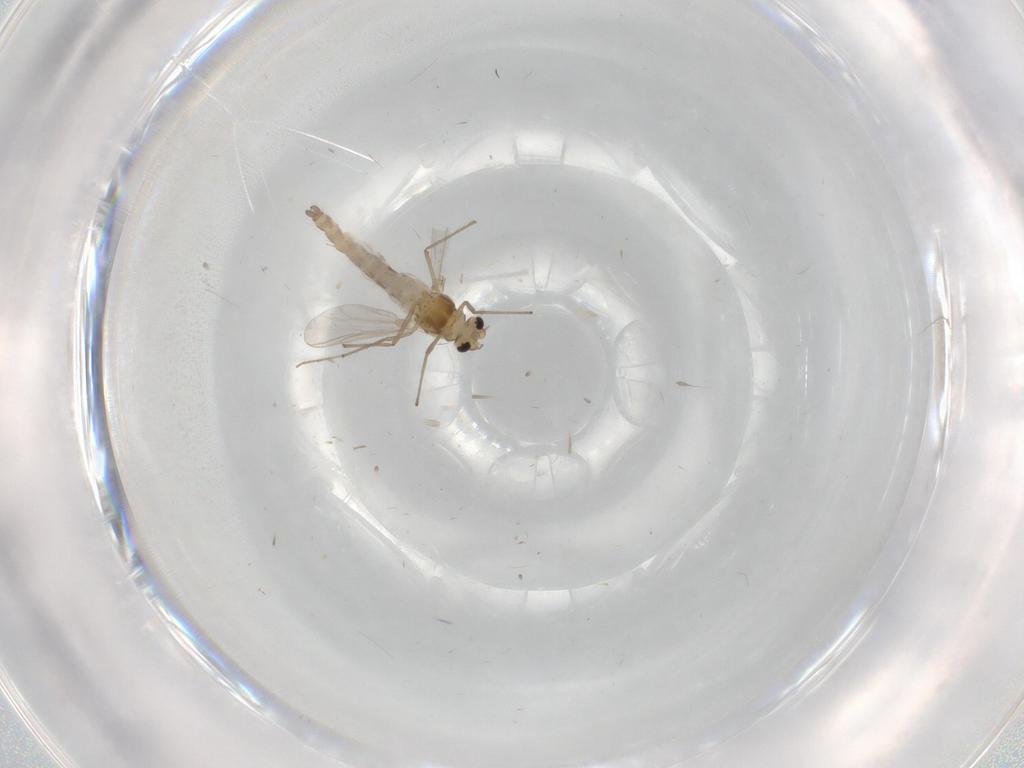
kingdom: Animalia
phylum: Arthropoda
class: Insecta
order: Diptera
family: Chironomidae
